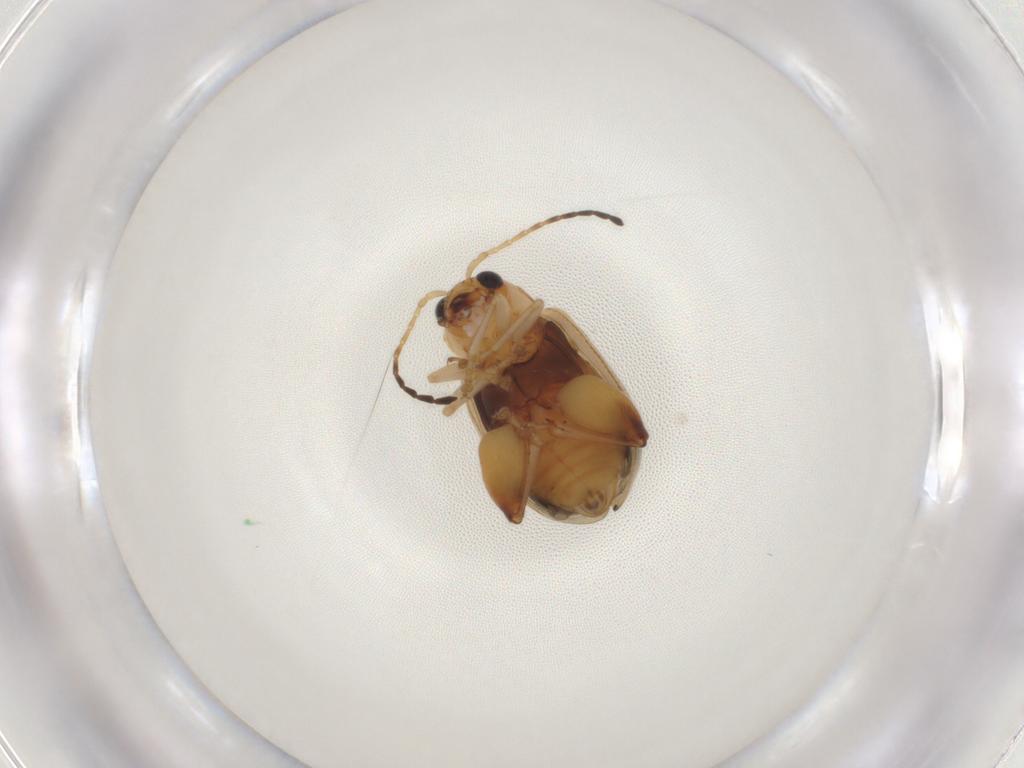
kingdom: Animalia
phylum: Arthropoda
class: Insecta
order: Coleoptera
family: Chrysomelidae
